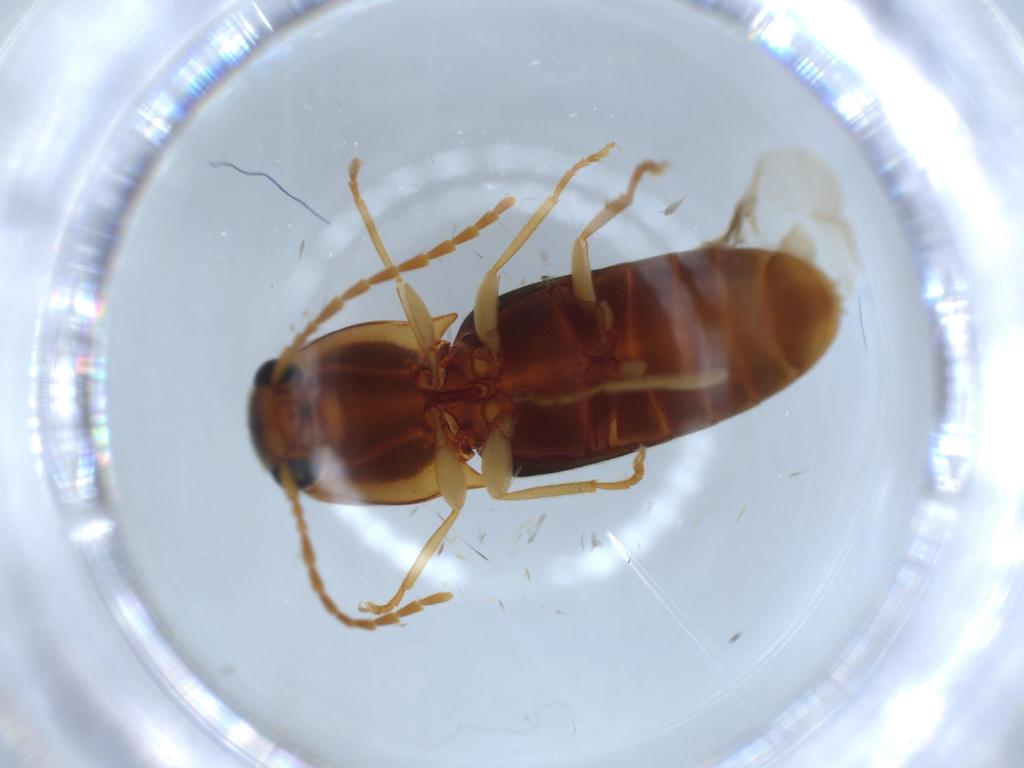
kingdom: Animalia
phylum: Arthropoda
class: Insecta
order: Coleoptera
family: Elateridae
